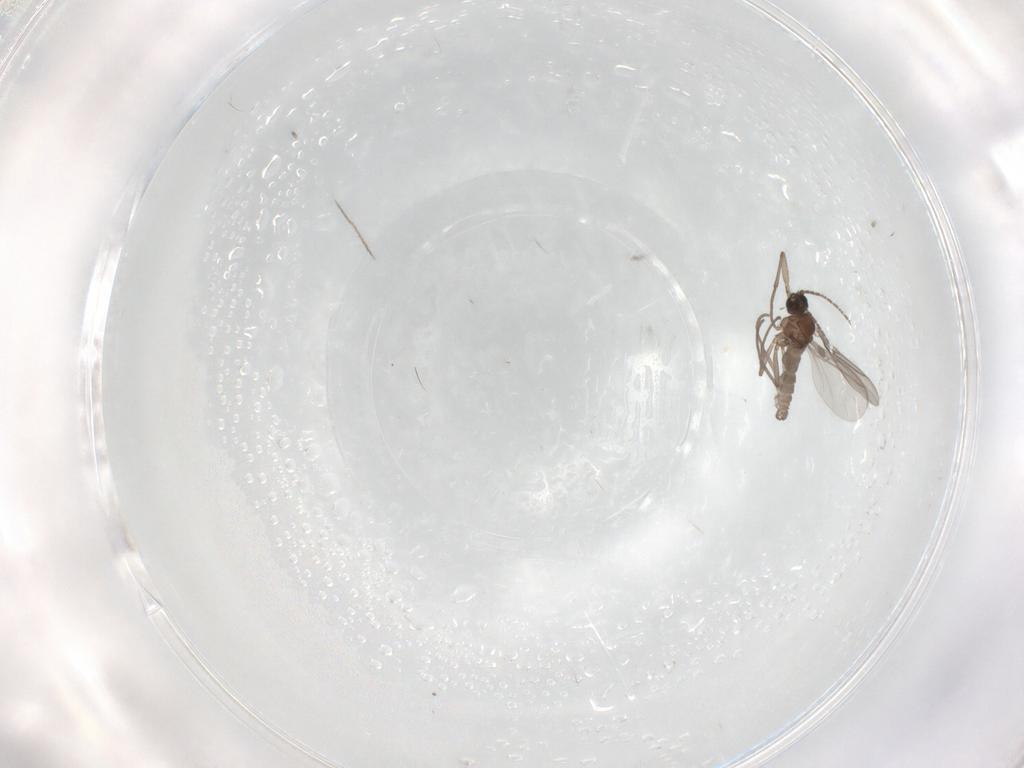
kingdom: Animalia
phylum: Arthropoda
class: Insecta
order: Diptera
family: Sciaridae
